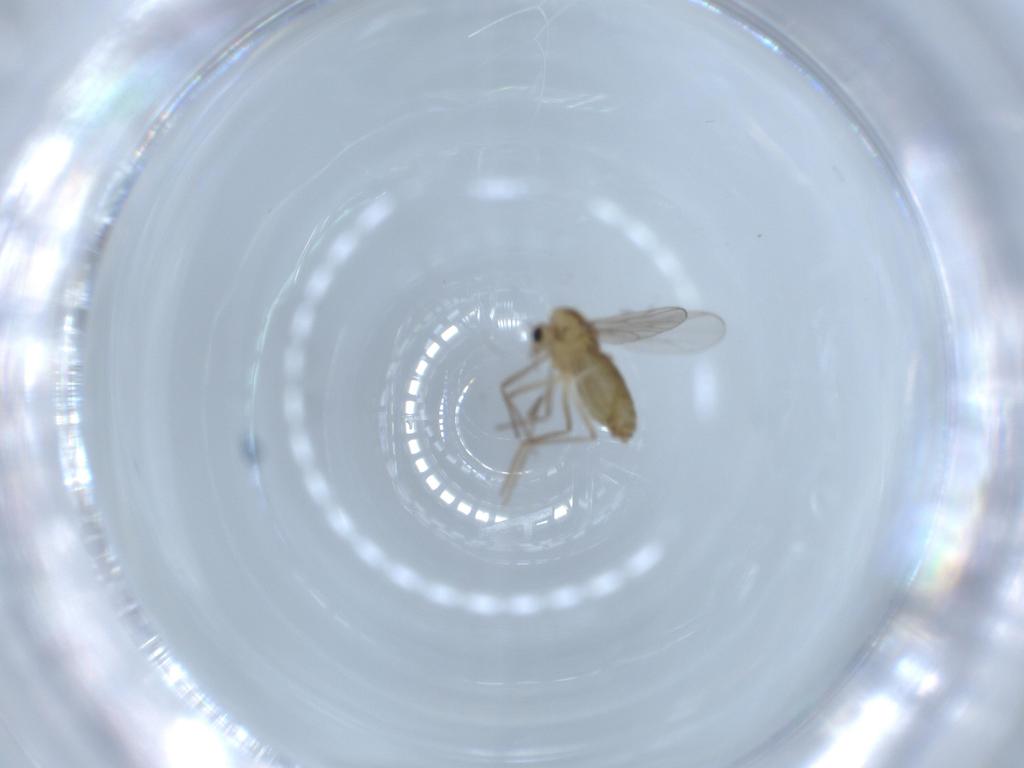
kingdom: Animalia
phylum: Arthropoda
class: Insecta
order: Diptera
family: Chironomidae
